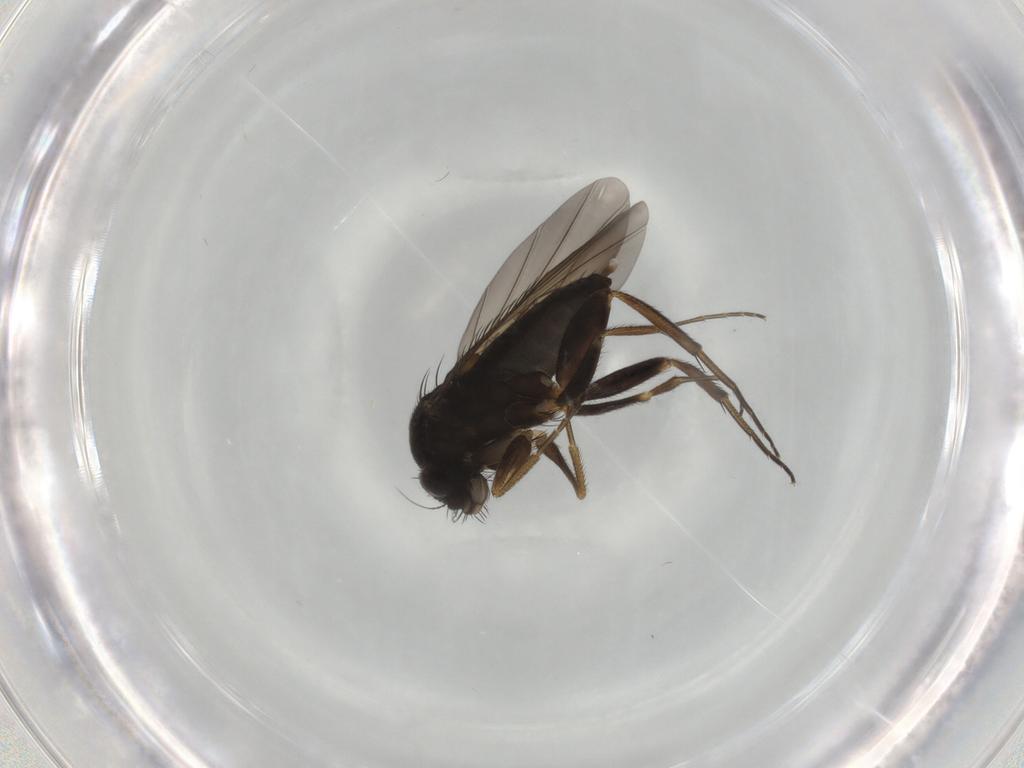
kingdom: Animalia
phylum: Arthropoda
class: Insecta
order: Diptera
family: Phoridae
